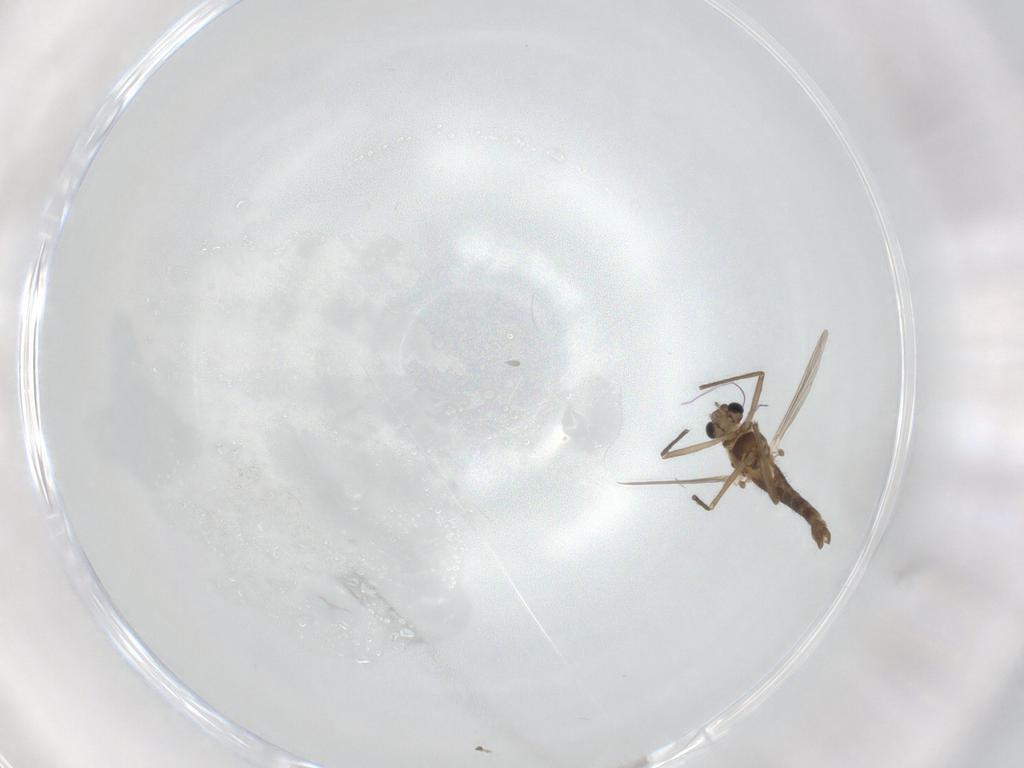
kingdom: Animalia
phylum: Arthropoda
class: Insecta
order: Diptera
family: Chironomidae
